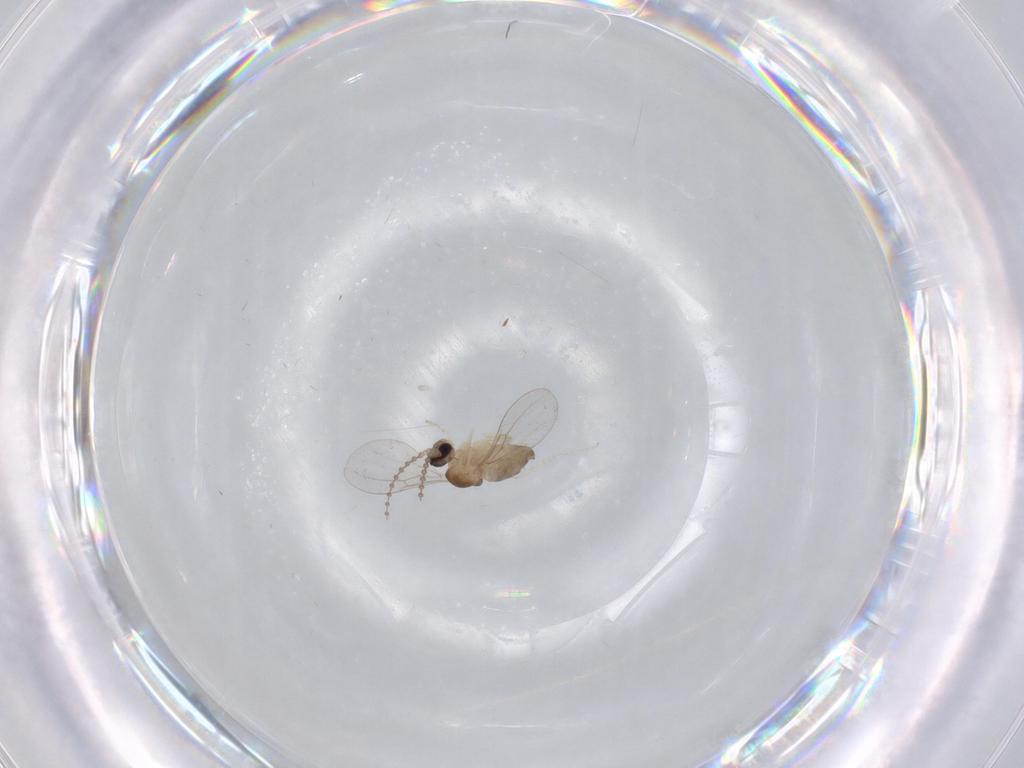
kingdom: Animalia
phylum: Arthropoda
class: Insecta
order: Diptera
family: Cecidomyiidae
